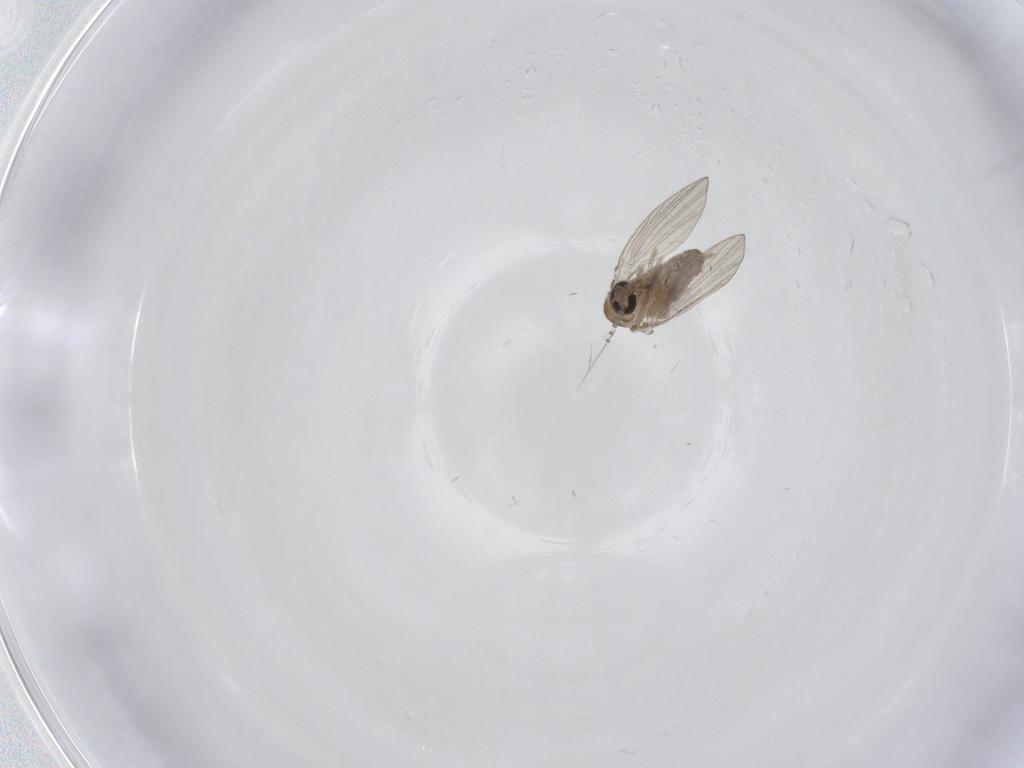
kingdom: Animalia
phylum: Arthropoda
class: Insecta
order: Diptera
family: Psychodidae
